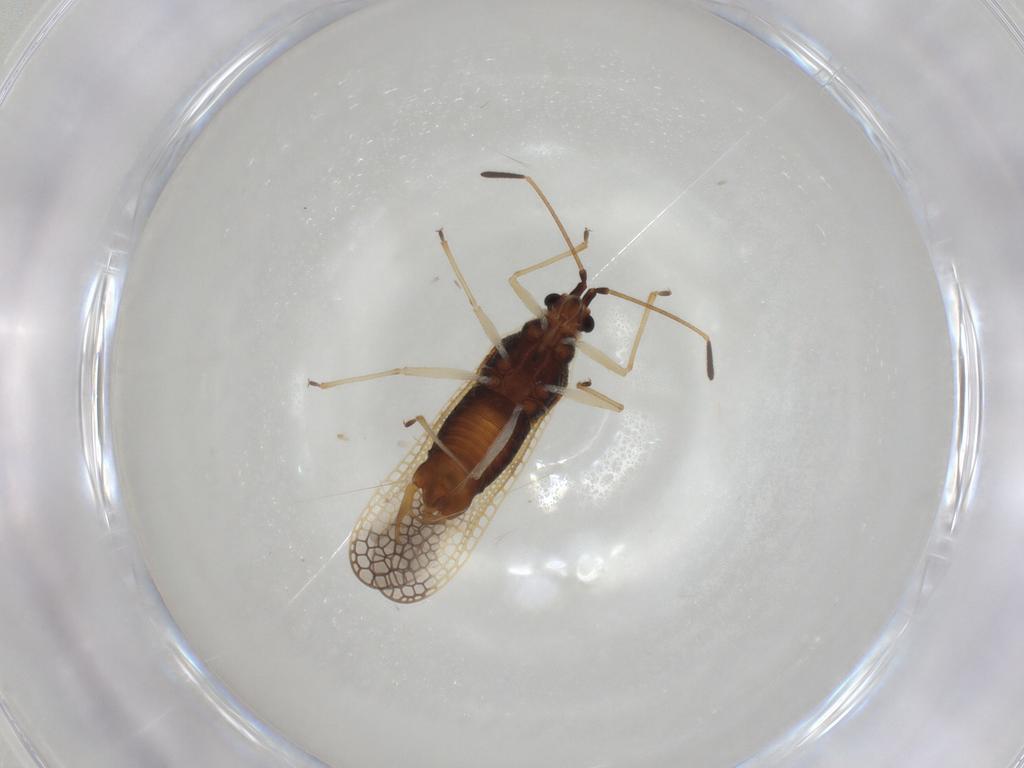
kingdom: Animalia
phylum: Arthropoda
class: Insecta
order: Hemiptera
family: Tingidae
